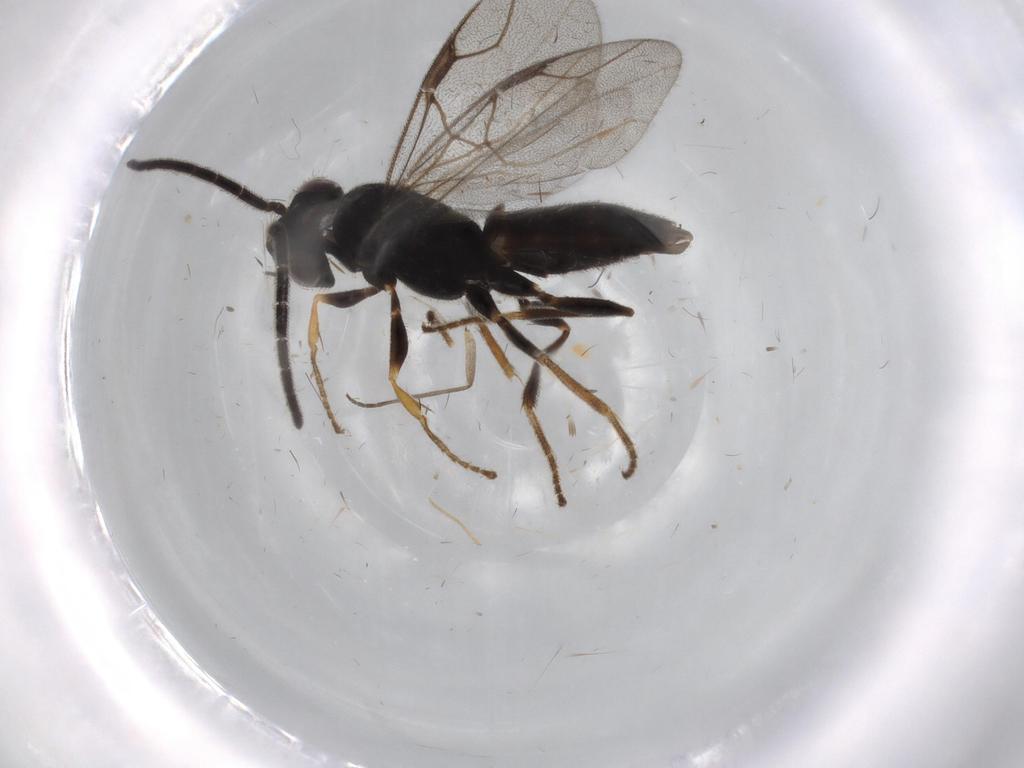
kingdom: Animalia
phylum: Arthropoda
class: Insecta
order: Hymenoptera
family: Dryinidae
